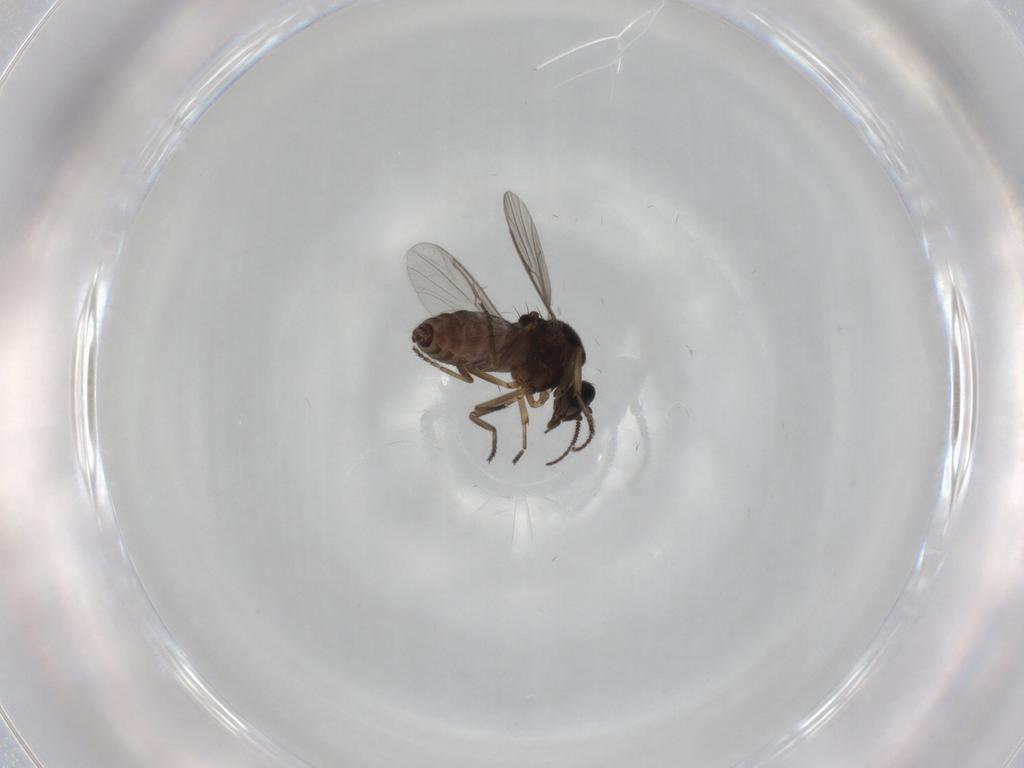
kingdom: Animalia
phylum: Arthropoda
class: Insecta
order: Diptera
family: Ceratopogonidae
